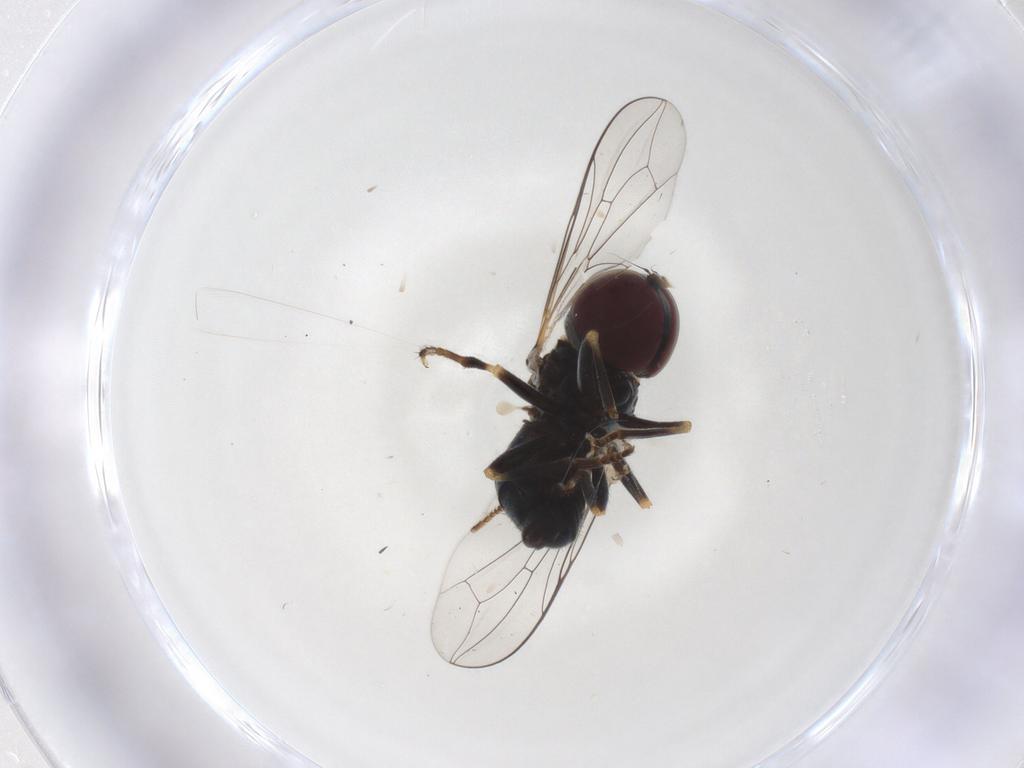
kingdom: Animalia
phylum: Arthropoda
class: Insecta
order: Diptera
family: Pipunculidae
